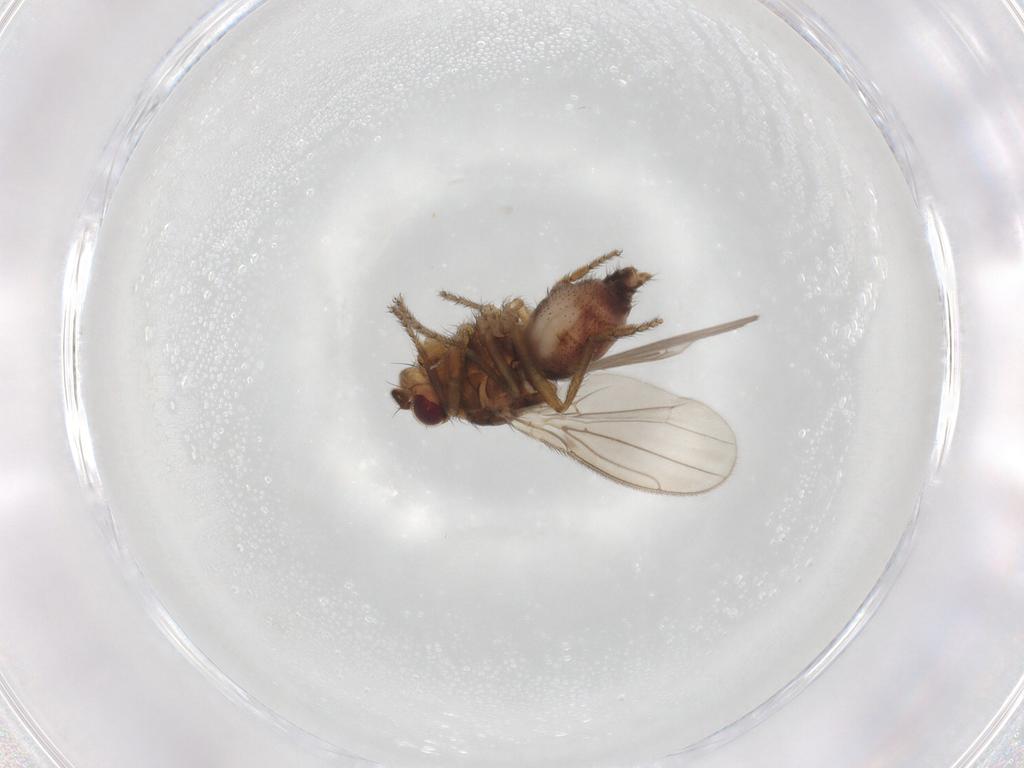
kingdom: Animalia
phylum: Arthropoda
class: Insecta
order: Diptera
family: Sphaeroceridae
